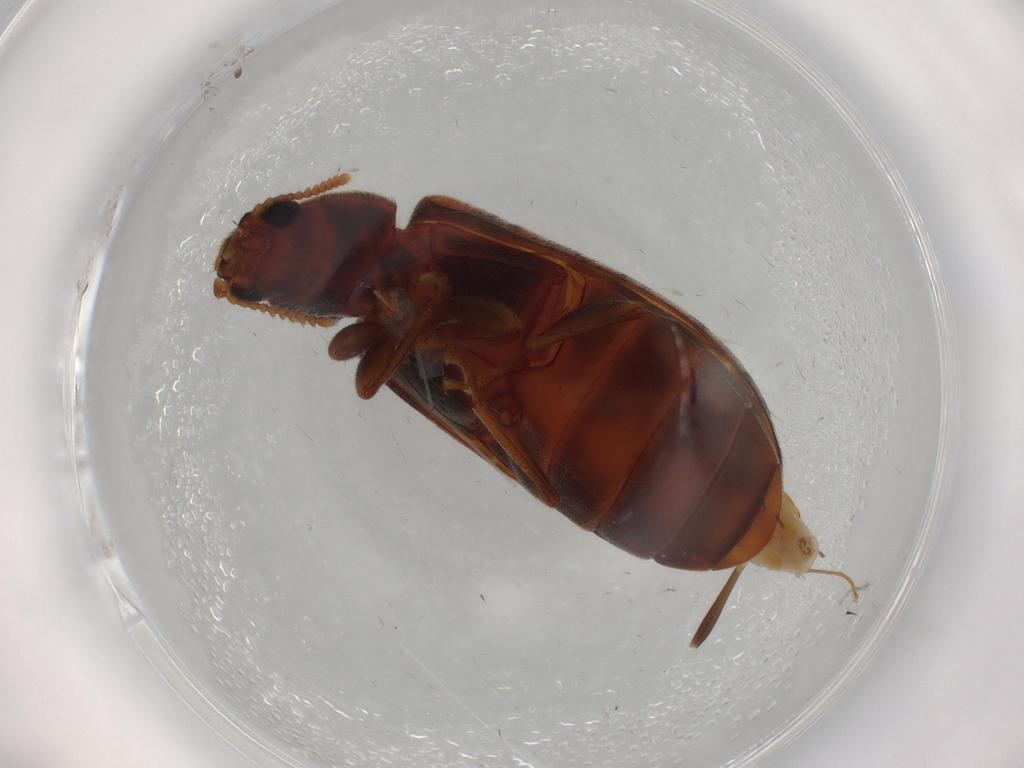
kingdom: Animalia
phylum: Arthropoda
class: Insecta
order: Coleoptera
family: Mycteridae
